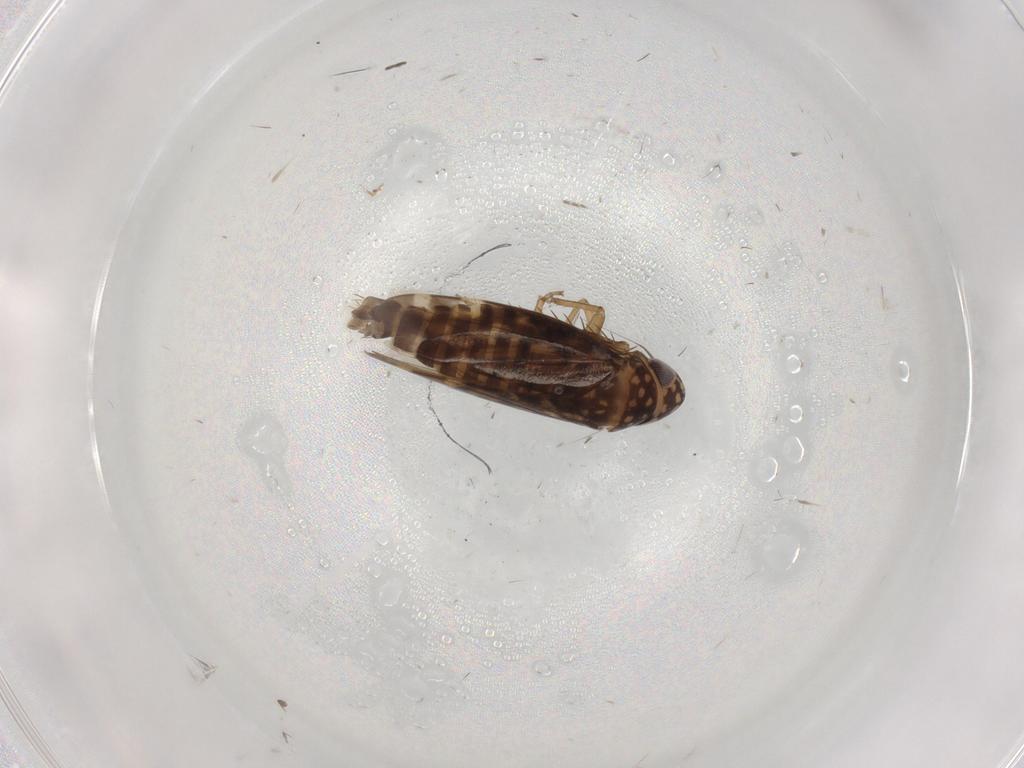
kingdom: Animalia
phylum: Arthropoda
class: Insecta
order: Hemiptera
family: Cicadellidae
